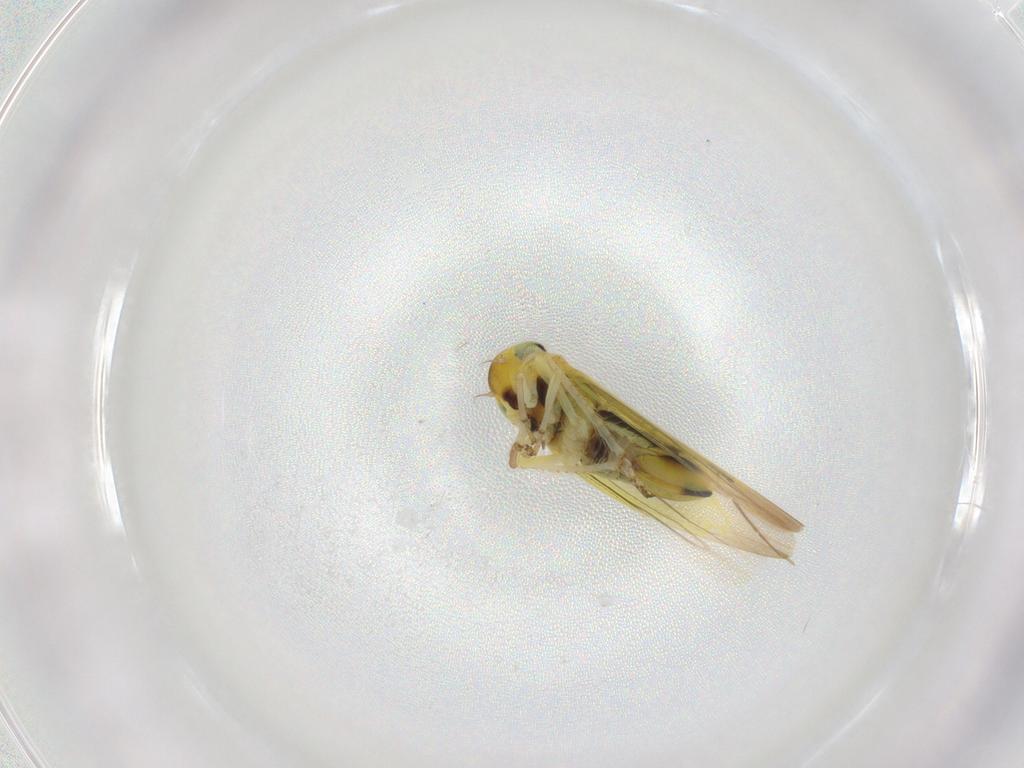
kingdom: Animalia
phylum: Arthropoda
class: Insecta
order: Hemiptera
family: Cicadellidae
